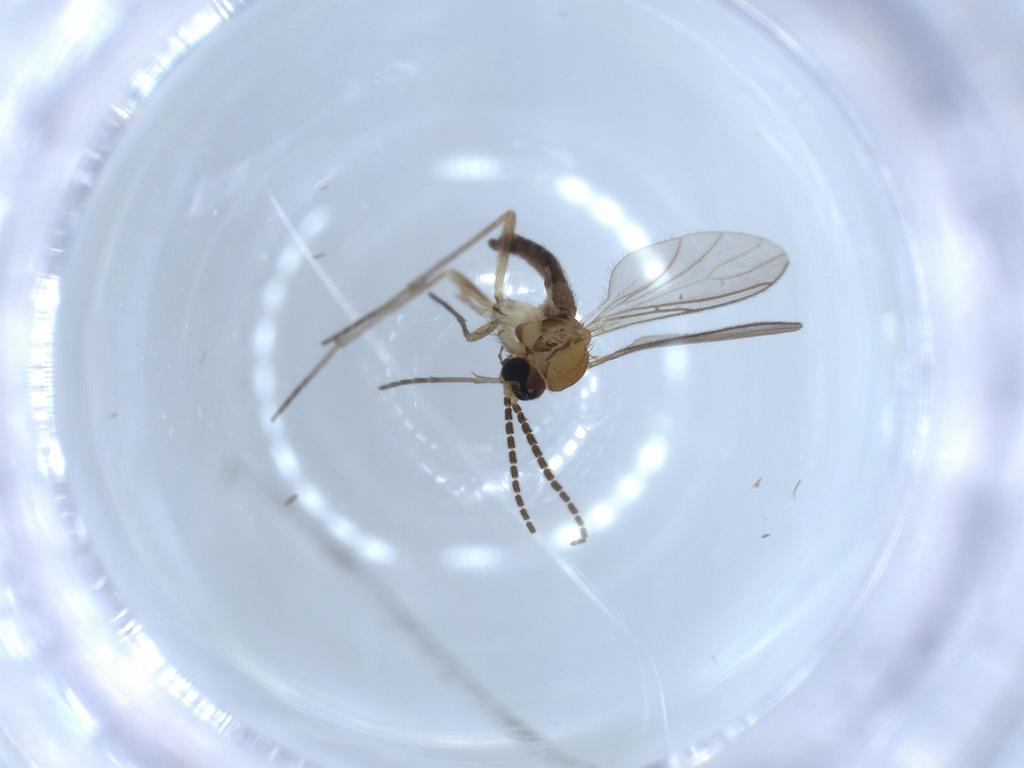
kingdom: Animalia
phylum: Arthropoda
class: Insecta
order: Diptera
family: Sciaridae
